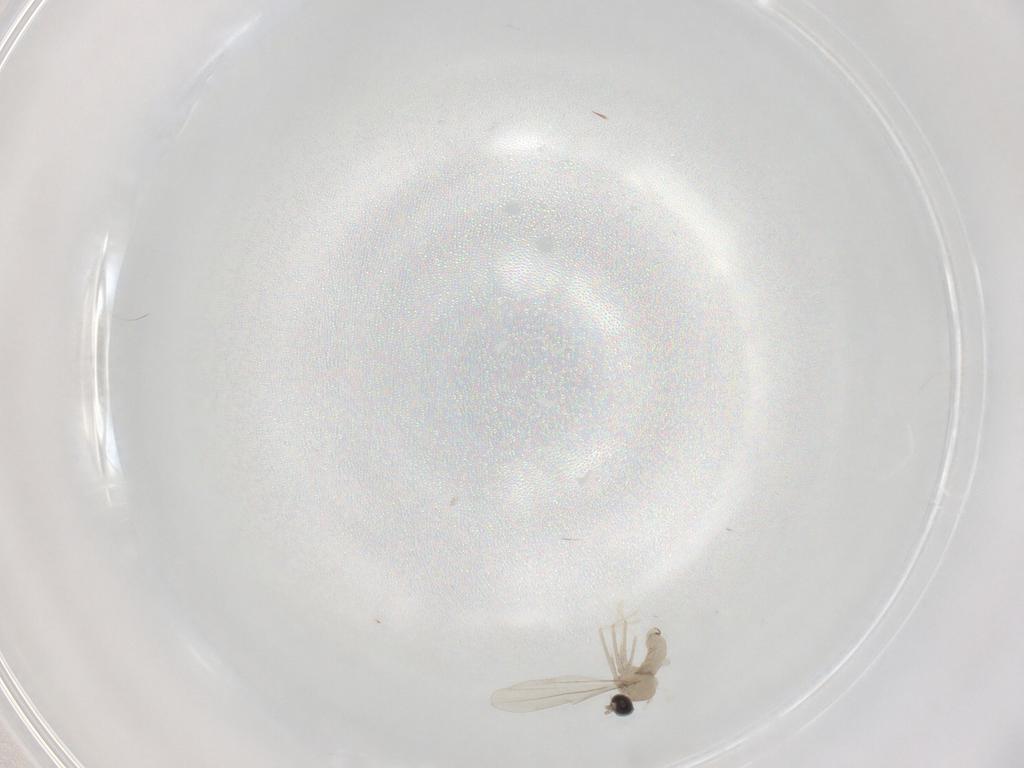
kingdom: Animalia
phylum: Arthropoda
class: Insecta
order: Diptera
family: Cecidomyiidae
